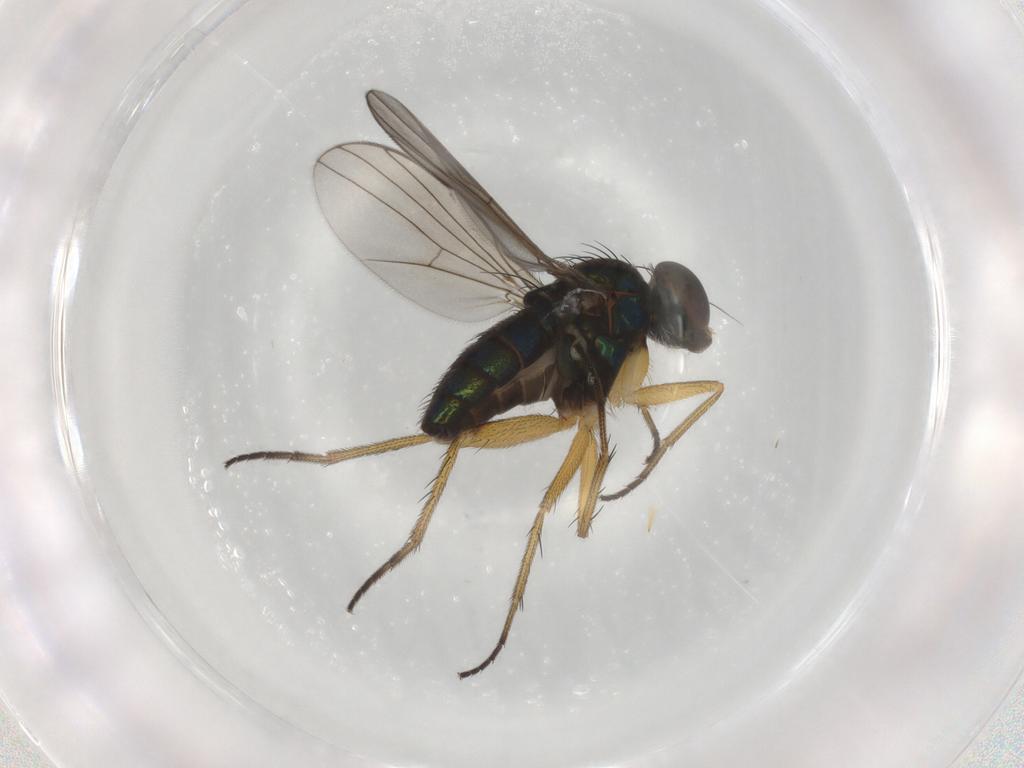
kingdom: Animalia
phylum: Arthropoda
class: Insecta
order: Diptera
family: Dolichopodidae
